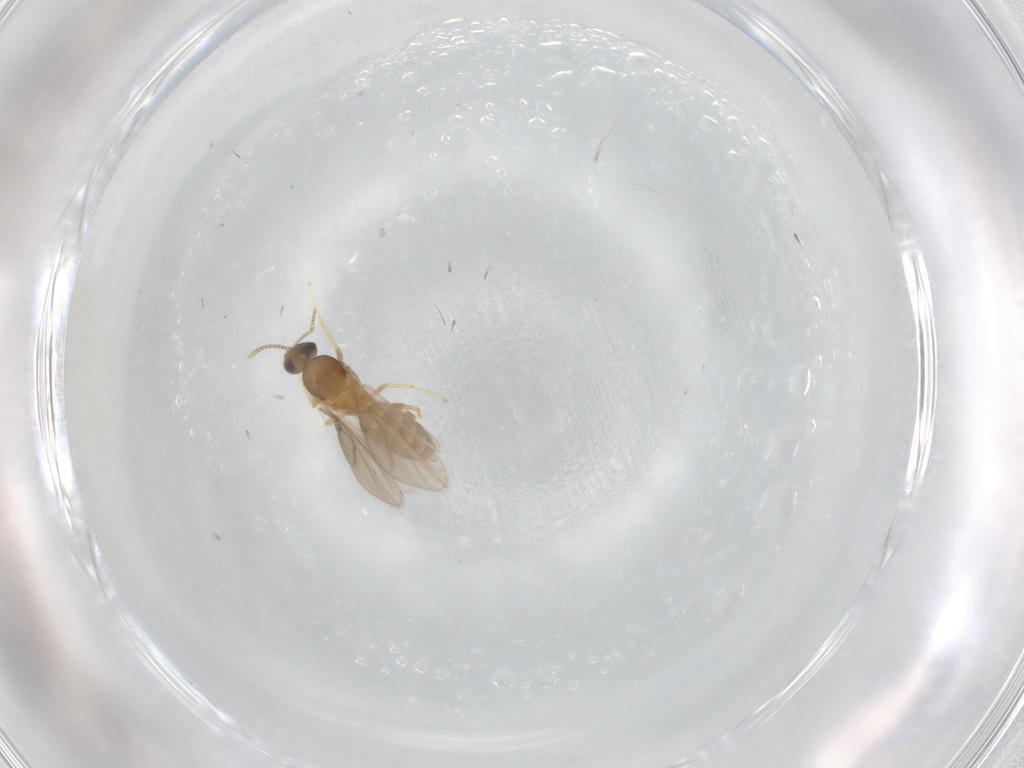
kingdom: Animalia
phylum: Arthropoda
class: Insecta
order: Hymenoptera
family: Formicidae
